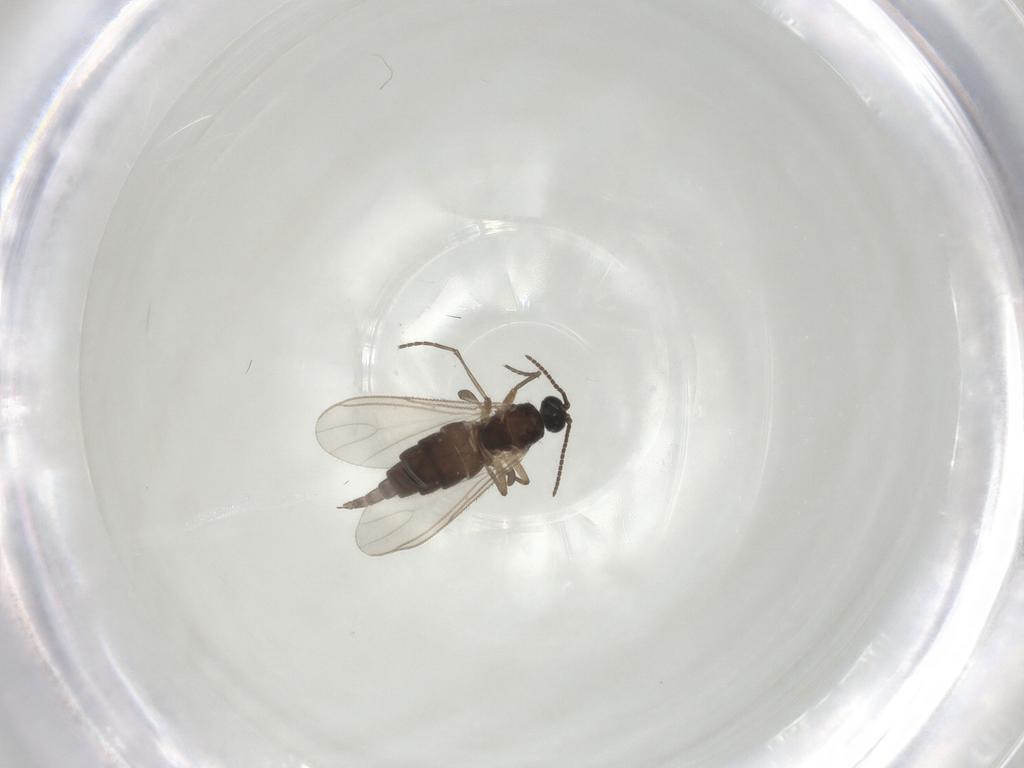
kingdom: Animalia
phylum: Arthropoda
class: Insecta
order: Diptera
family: Sciaridae
